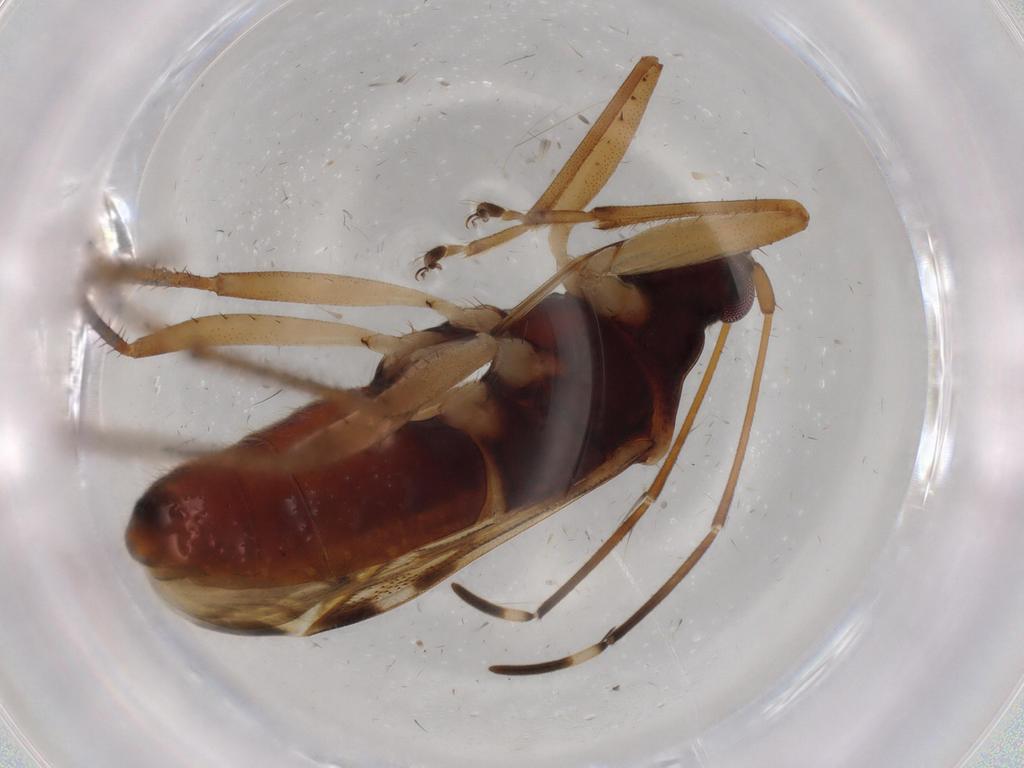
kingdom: Animalia
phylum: Arthropoda
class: Insecta
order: Hemiptera
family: Rhyparochromidae
